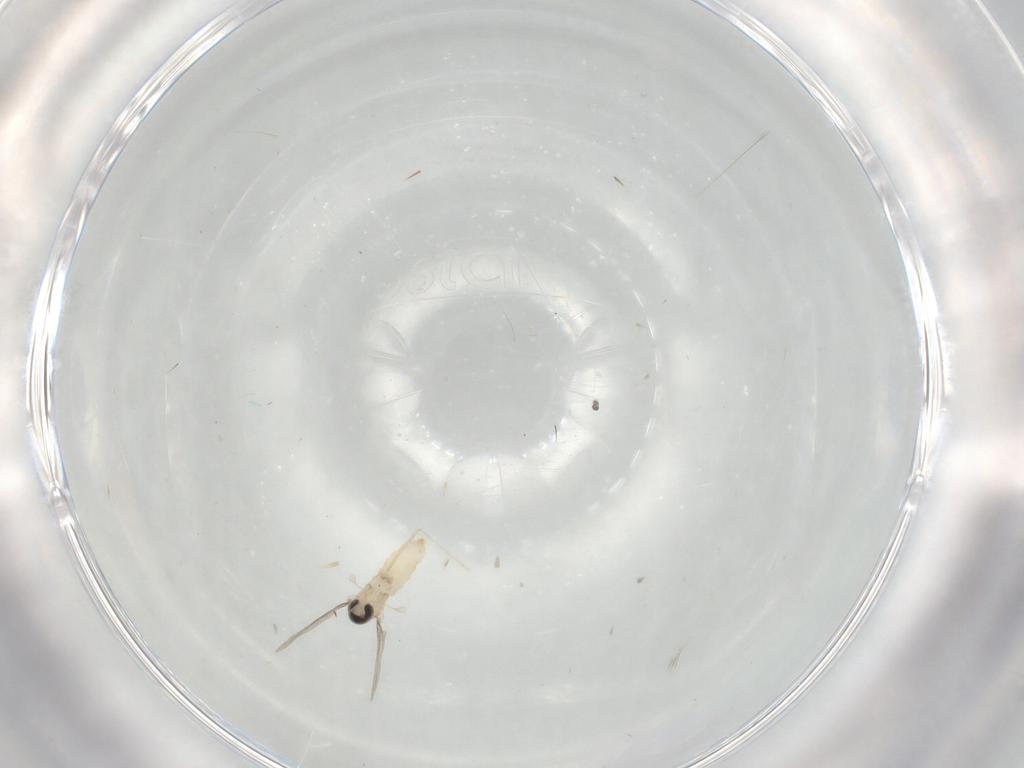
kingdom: Animalia
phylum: Arthropoda
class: Insecta
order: Diptera
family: Cecidomyiidae
